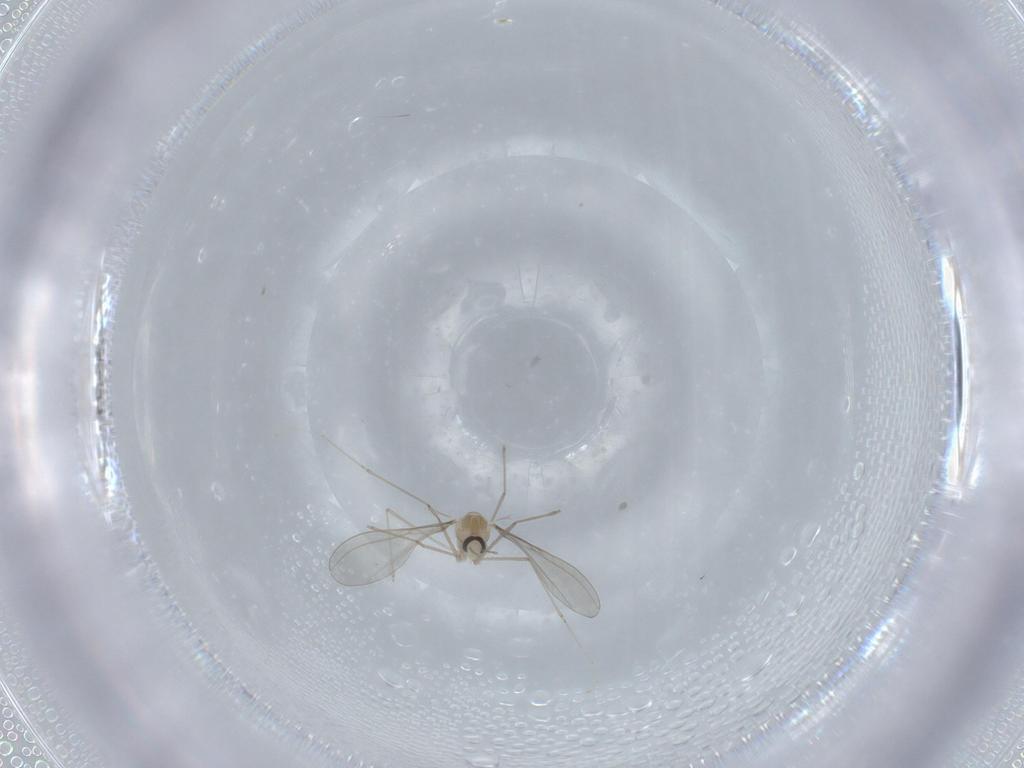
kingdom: Animalia
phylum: Arthropoda
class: Insecta
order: Diptera
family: Cecidomyiidae
